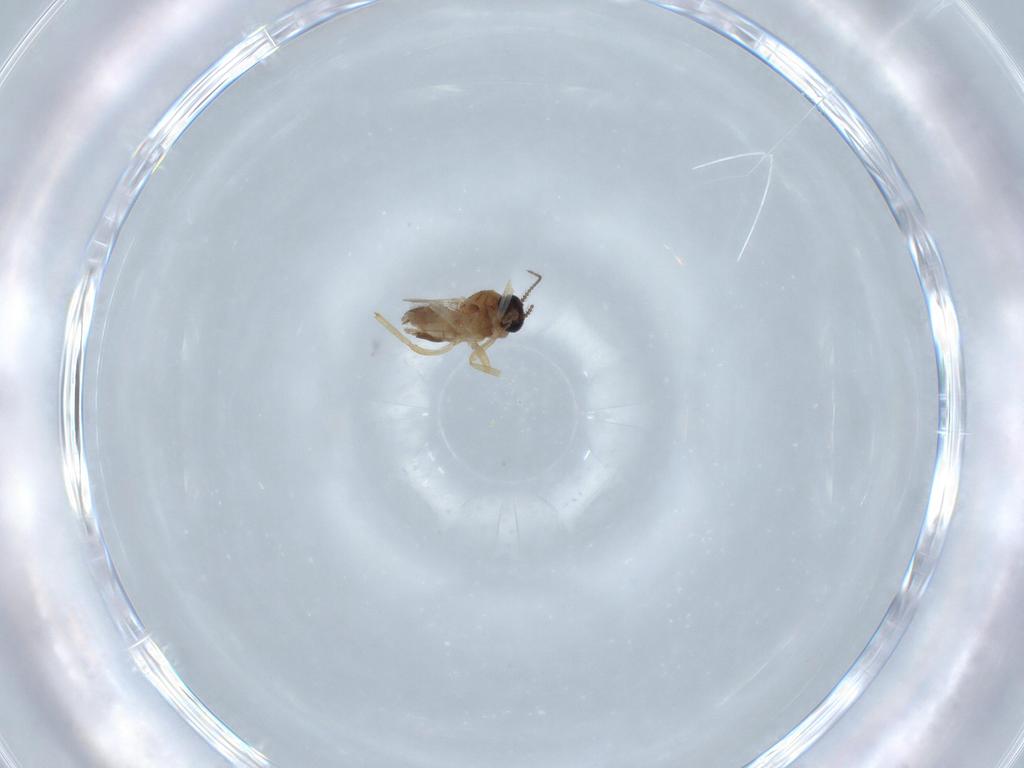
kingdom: Animalia
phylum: Arthropoda
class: Insecta
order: Diptera
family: Ceratopogonidae
